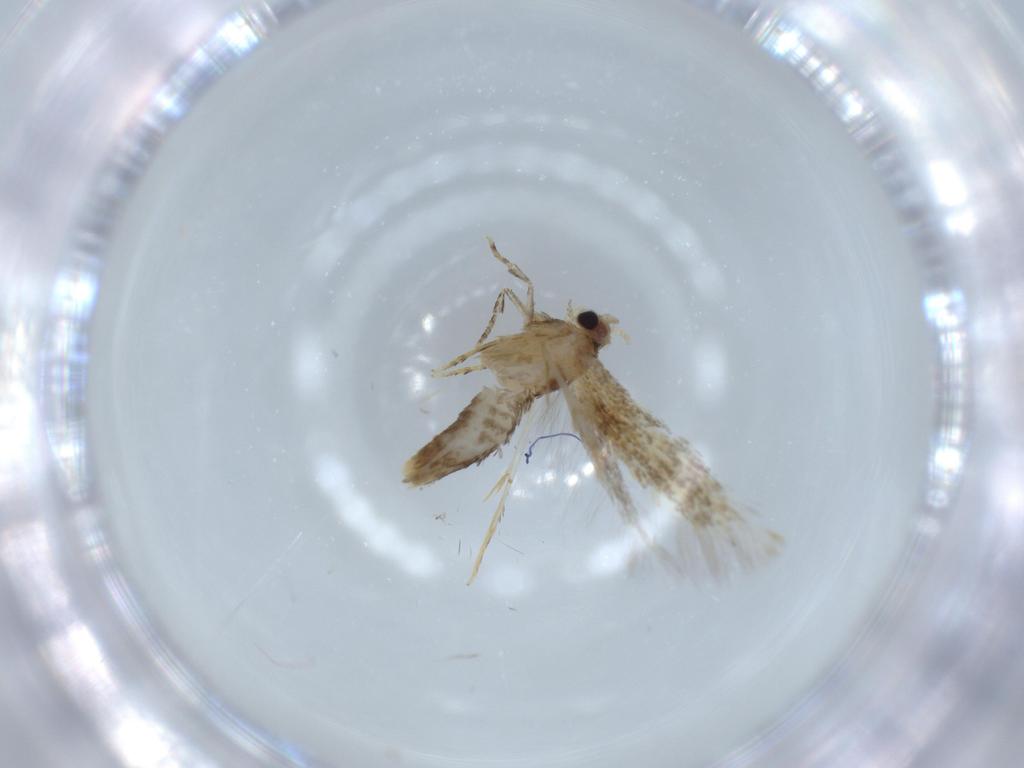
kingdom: Animalia
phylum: Arthropoda
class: Insecta
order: Lepidoptera
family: Tineidae
